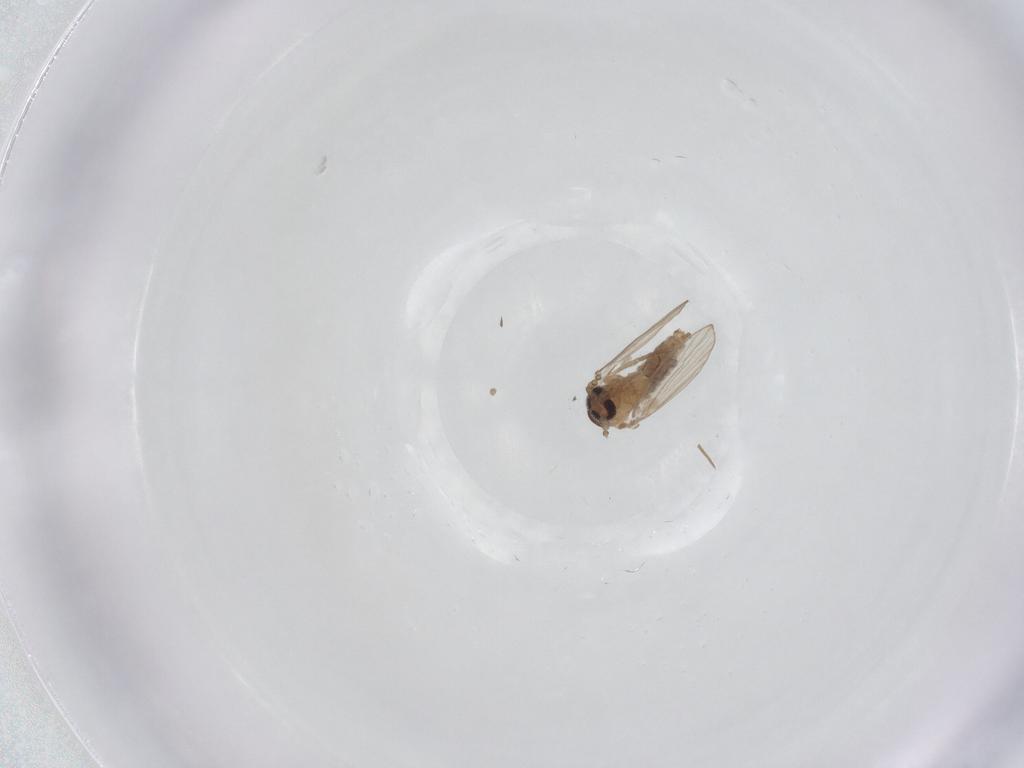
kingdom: Animalia
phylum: Arthropoda
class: Insecta
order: Diptera
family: Psychodidae
